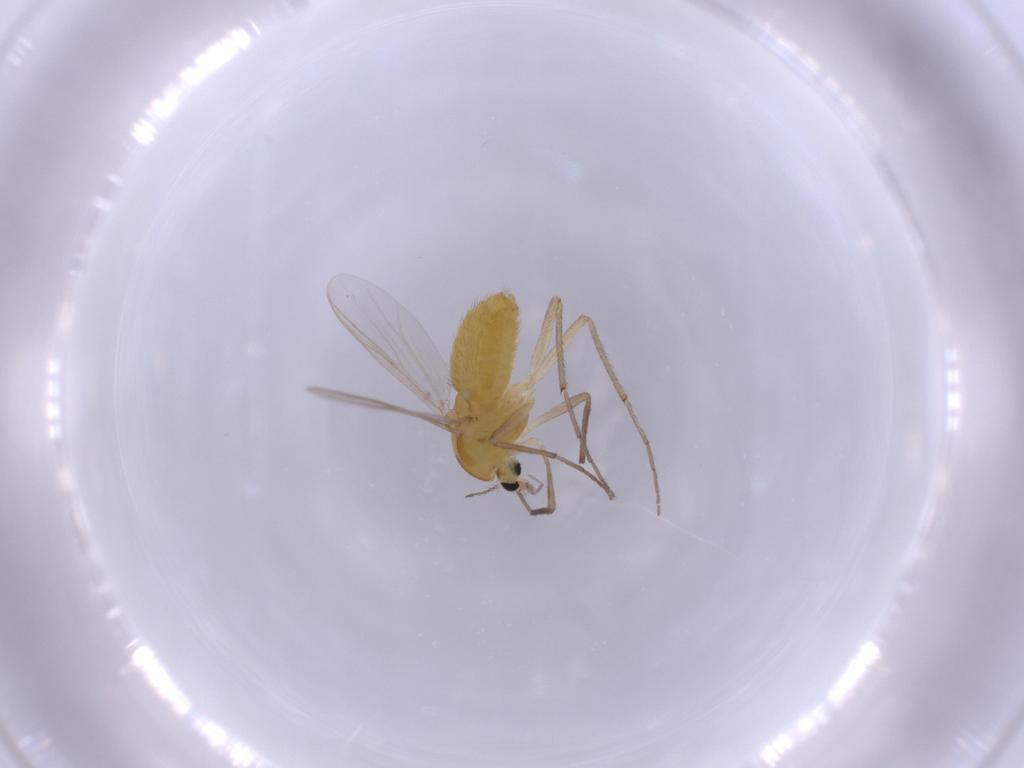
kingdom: Animalia
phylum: Arthropoda
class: Insecta
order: Diptera
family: Chironomidae
